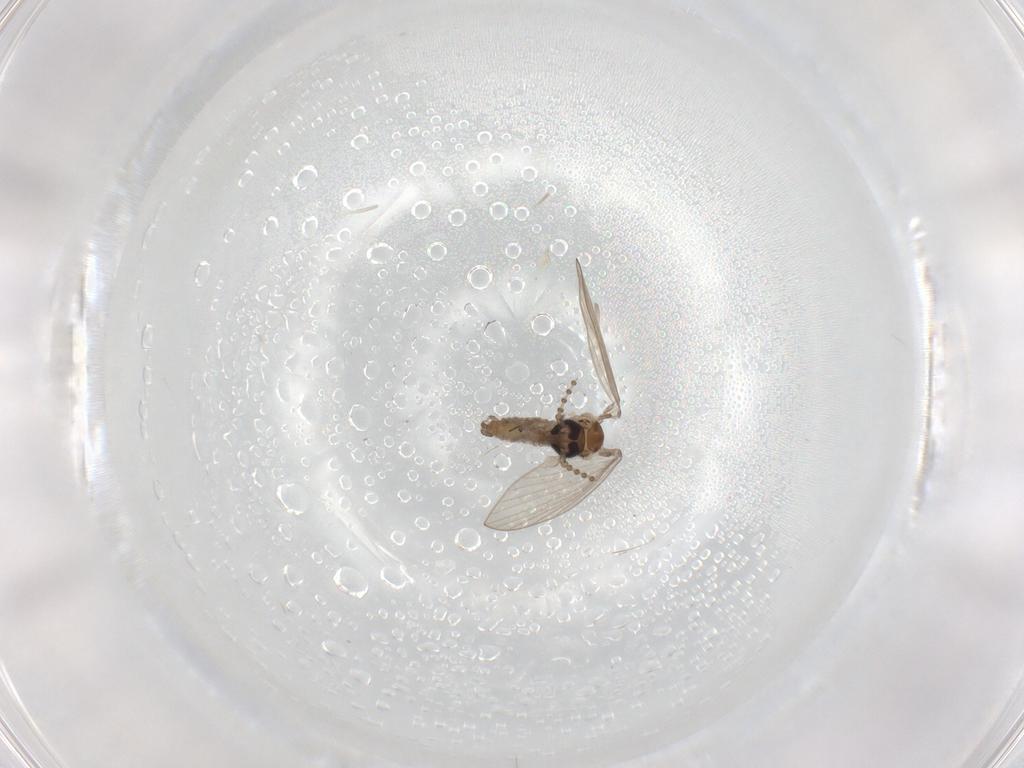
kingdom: Animalia
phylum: Arthropoda
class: Insecta
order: Diptera
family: Psychodidae
